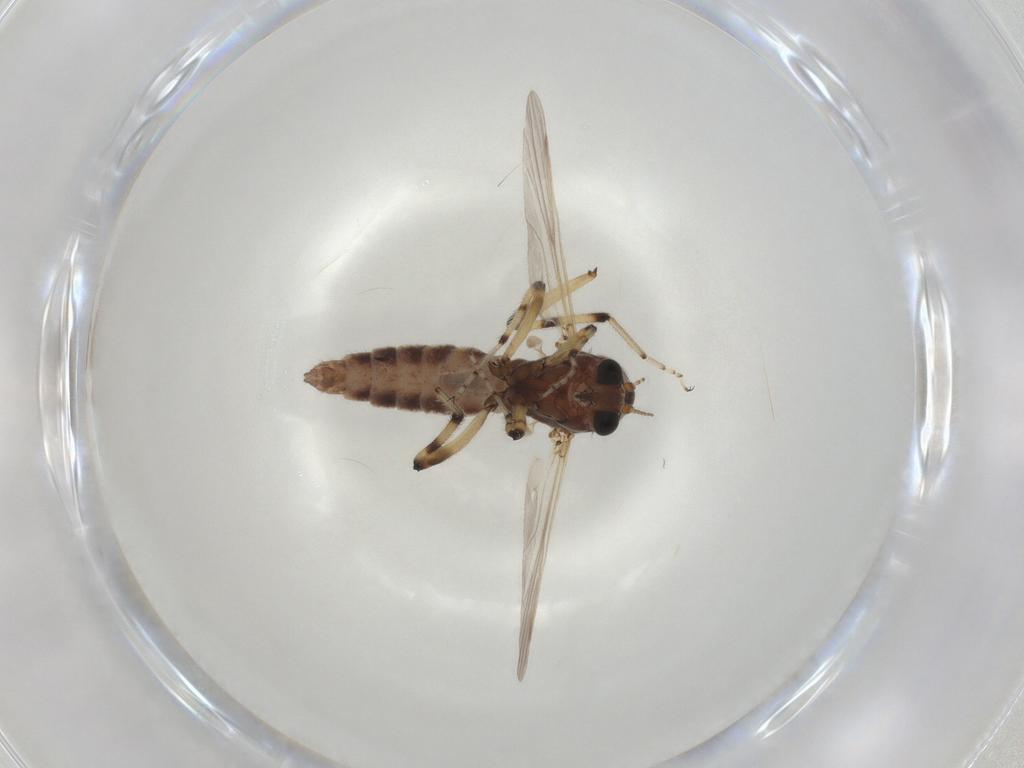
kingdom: Animalia
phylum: Arthropoda
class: Insecta
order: Diptera
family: Ceratopogonidae
